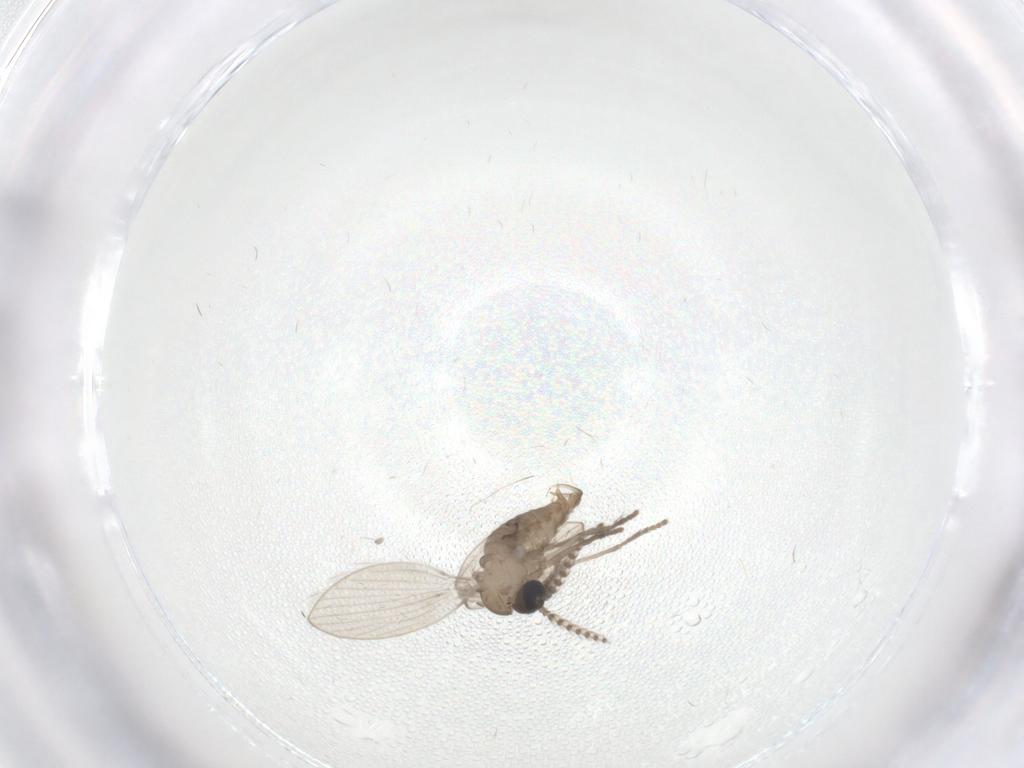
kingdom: Animalia
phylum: Arthropoda
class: Insecta
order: Diptera
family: Psychodidae
